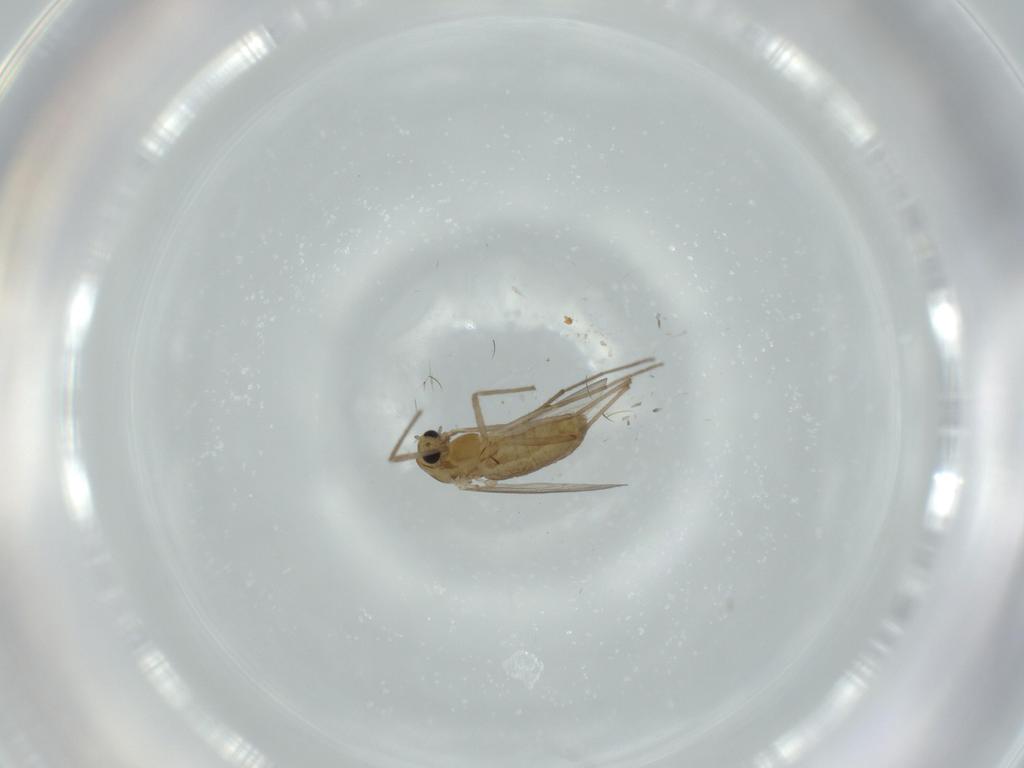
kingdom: Animalia
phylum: Arthropoda
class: Insecta
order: Diptera
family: Chironomidae
